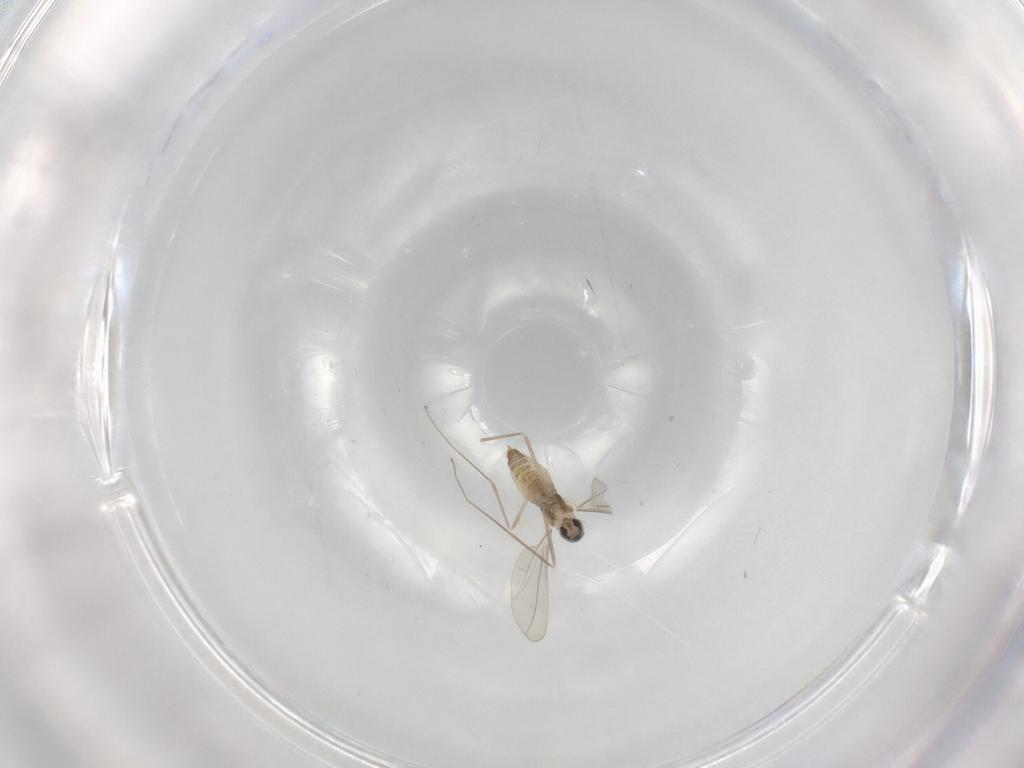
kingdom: Animalia
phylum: Arthropoda
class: Insecta
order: Diptera
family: Cecidomyiidae
